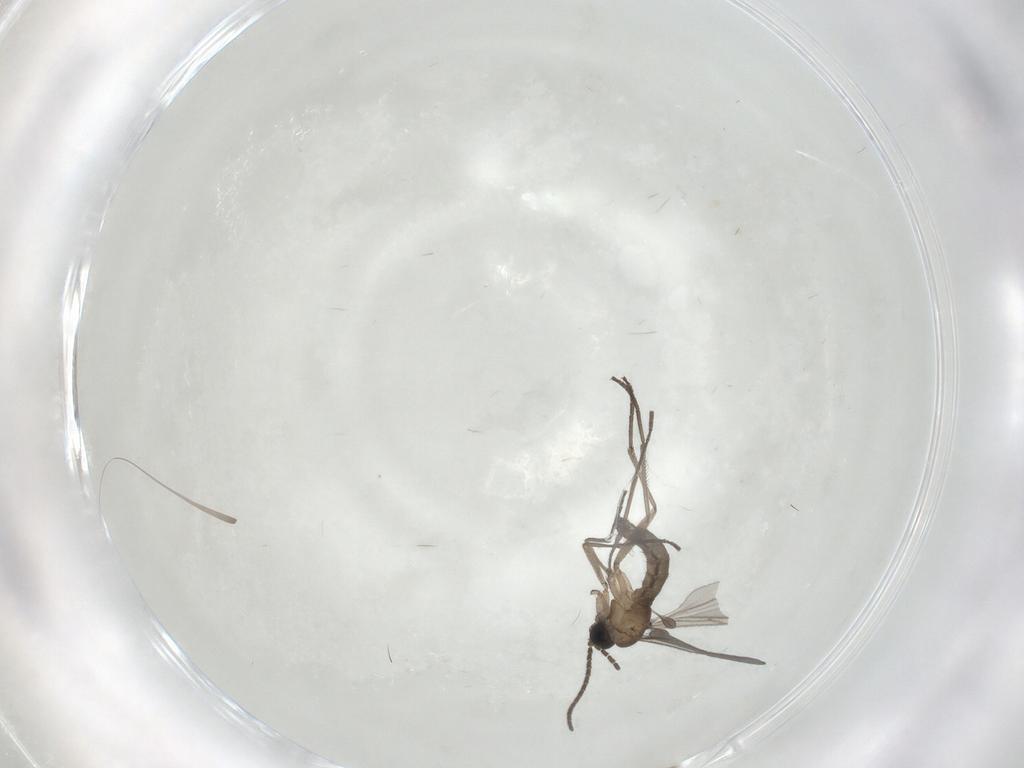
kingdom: Animalia
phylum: Arthropoda
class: Insecta
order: Diptera
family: Sciaridae
